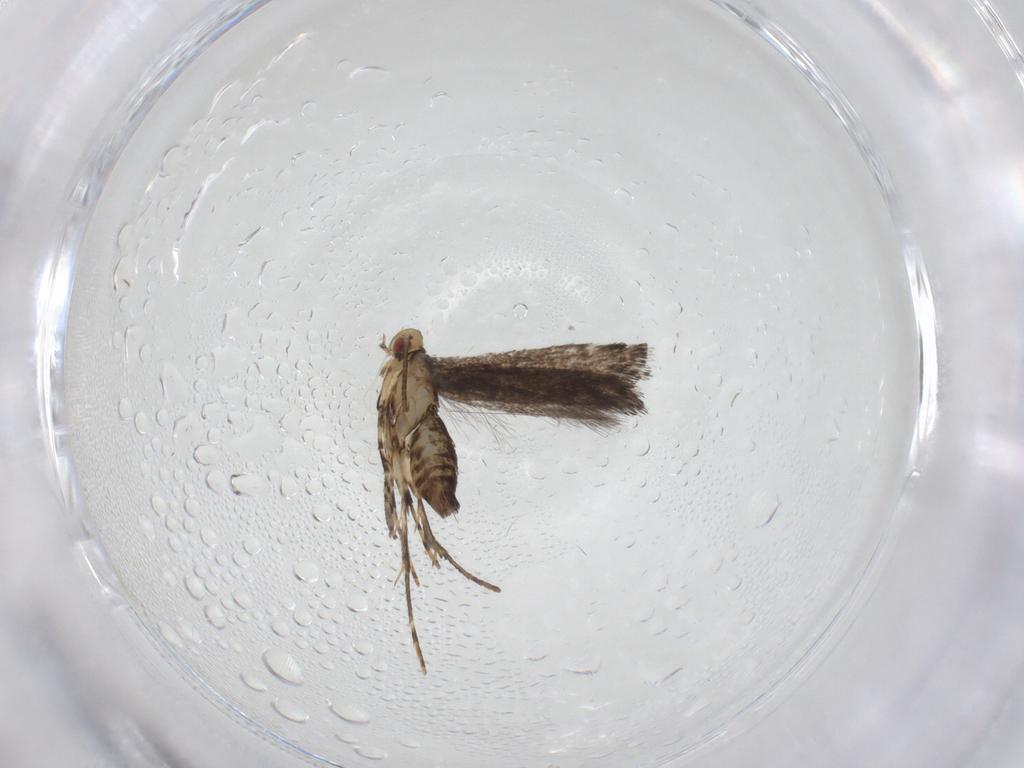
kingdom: Animalia
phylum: Arthropoda
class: Insecta
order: Lepidoptera
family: Gracillariidae
